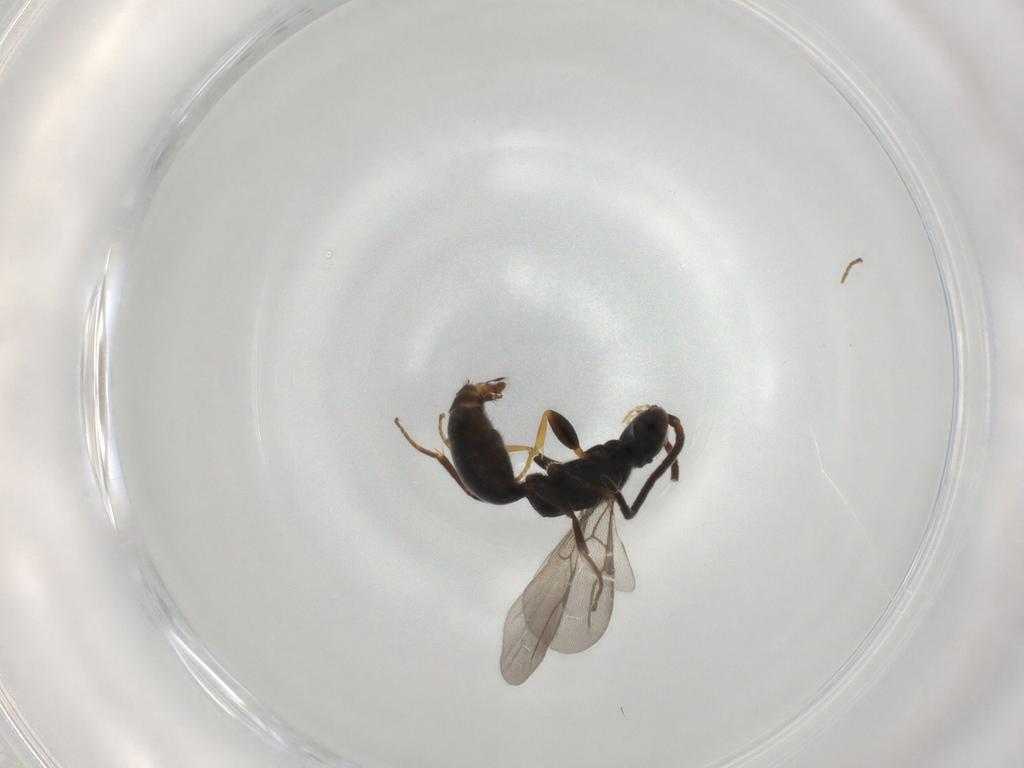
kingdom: Animalia
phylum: Arthropoda
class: Insecta
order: Hymenoptera
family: Bethylidae
